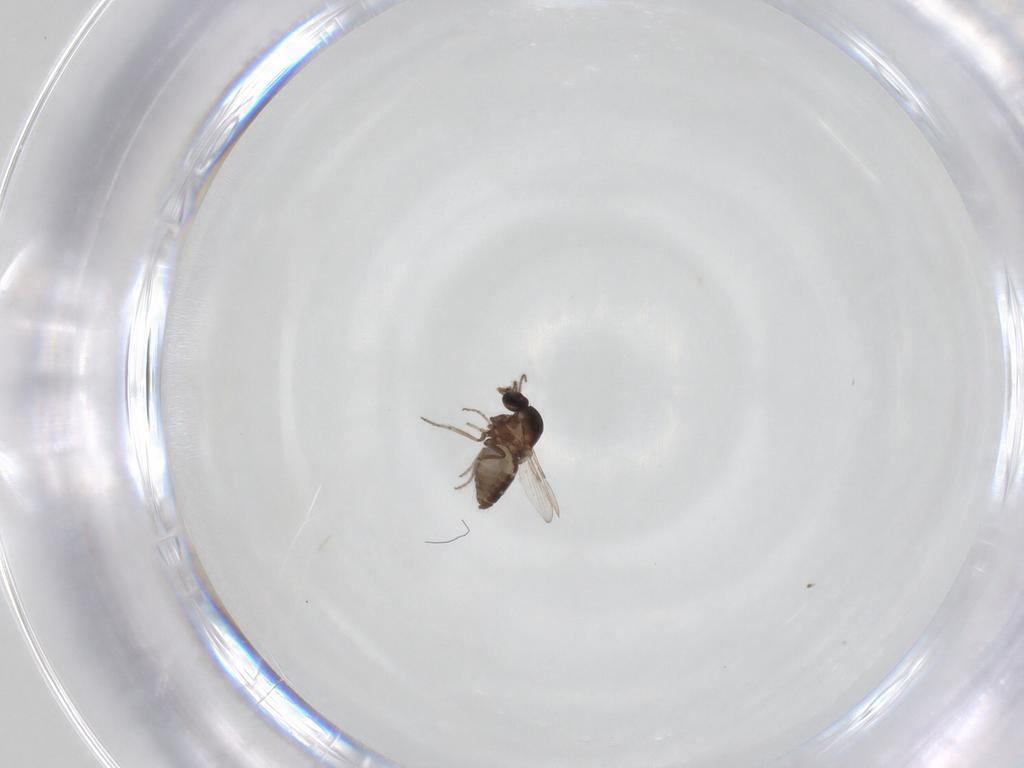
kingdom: Animalia
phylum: Arthropoda
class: Insecta
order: Diptera
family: Ceratopogonidae
